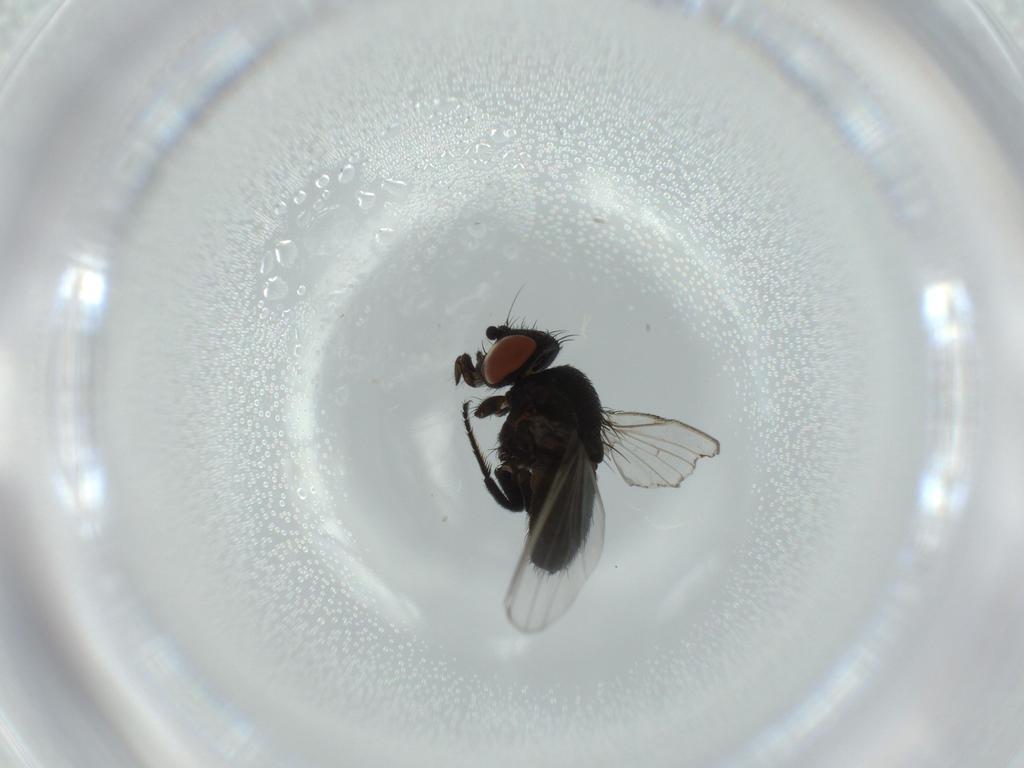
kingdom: Animalia
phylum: Arthropoda
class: Insecta
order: Diptera
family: Milichiidae
